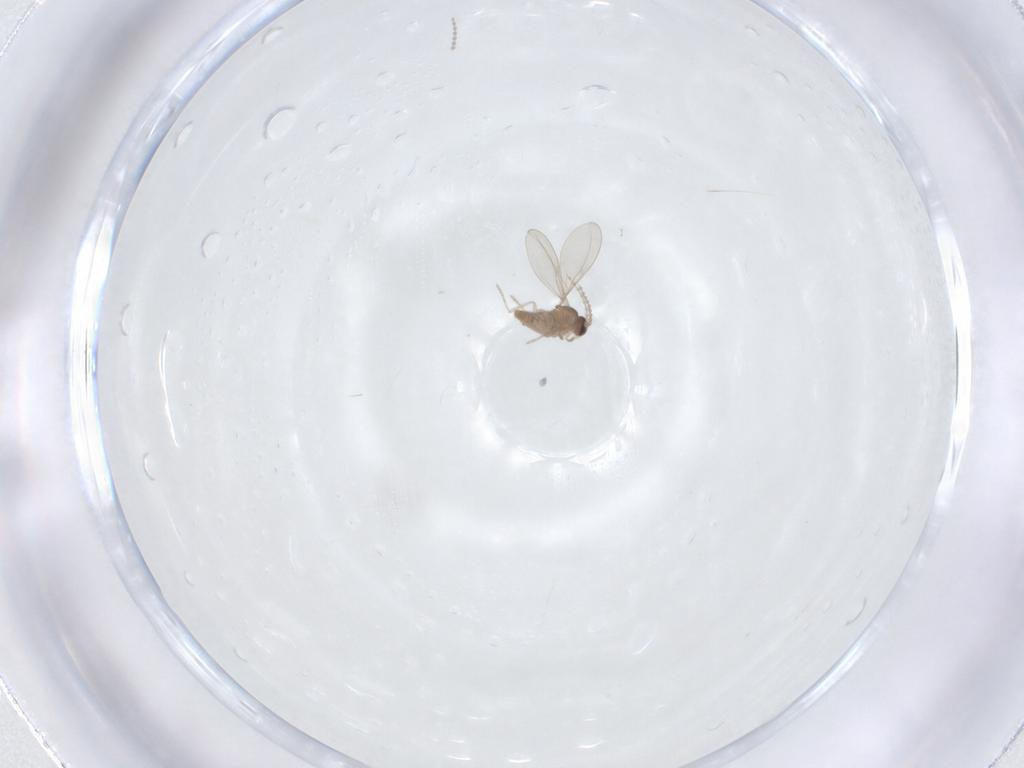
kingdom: Animalia
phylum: Arthropoda
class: Insecta
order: Diptera
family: Cecidomyiidae
